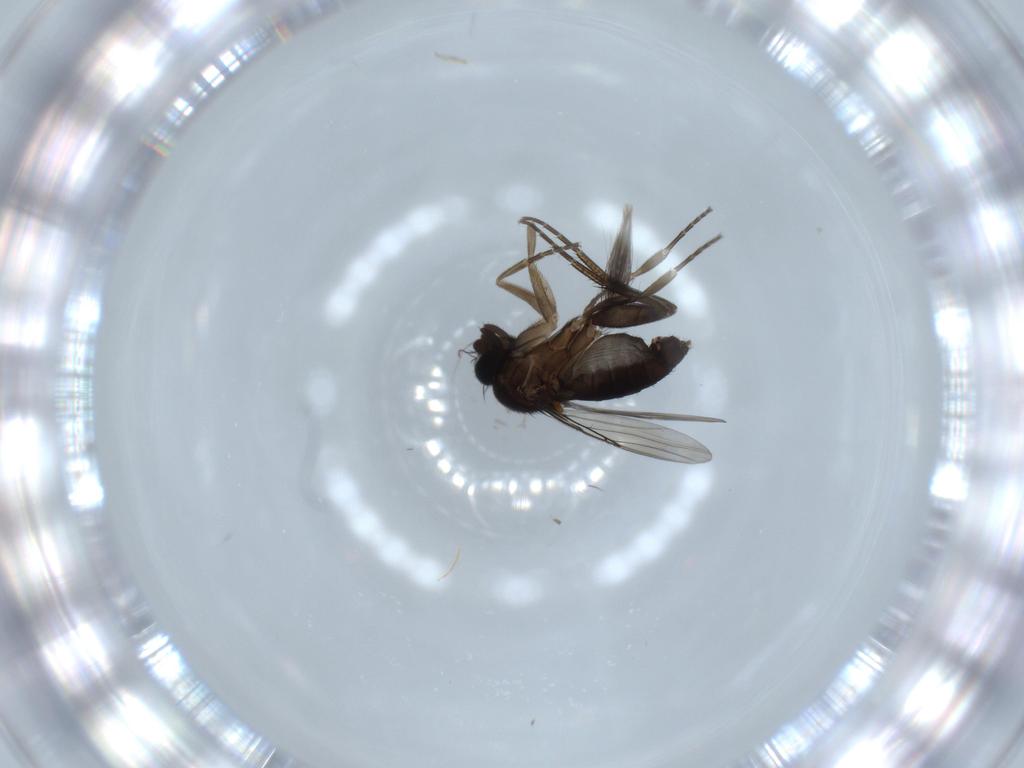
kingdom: Animalia
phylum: Arthropoda
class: Insecta
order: Diptera
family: Phoridae
